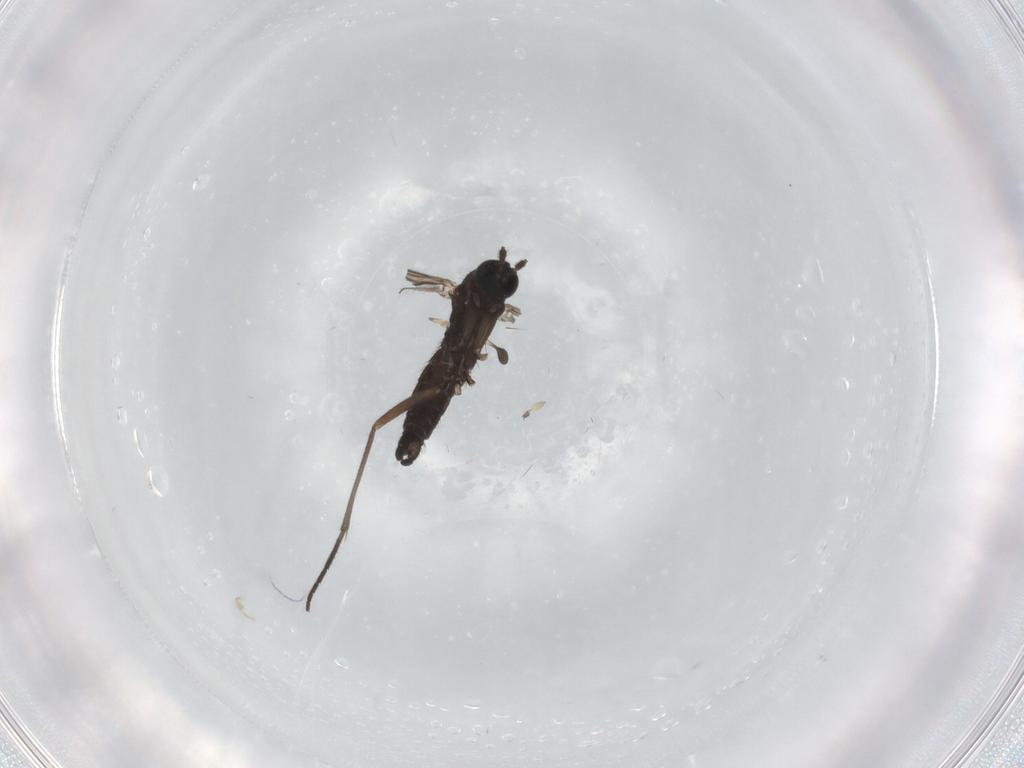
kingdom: Animalia
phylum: Arthropoda
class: Insecta
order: Diptera
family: Sciaridae
